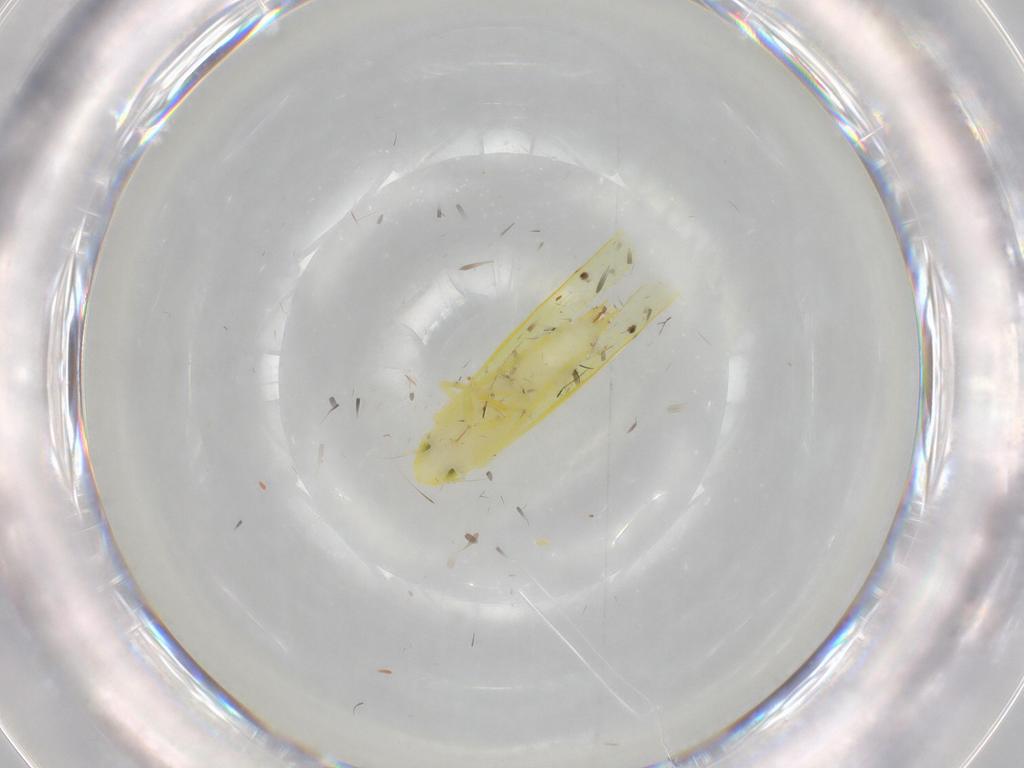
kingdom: Animalia
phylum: Arthropoda
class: Insecta
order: Hemiptera
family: Cicadellidae
